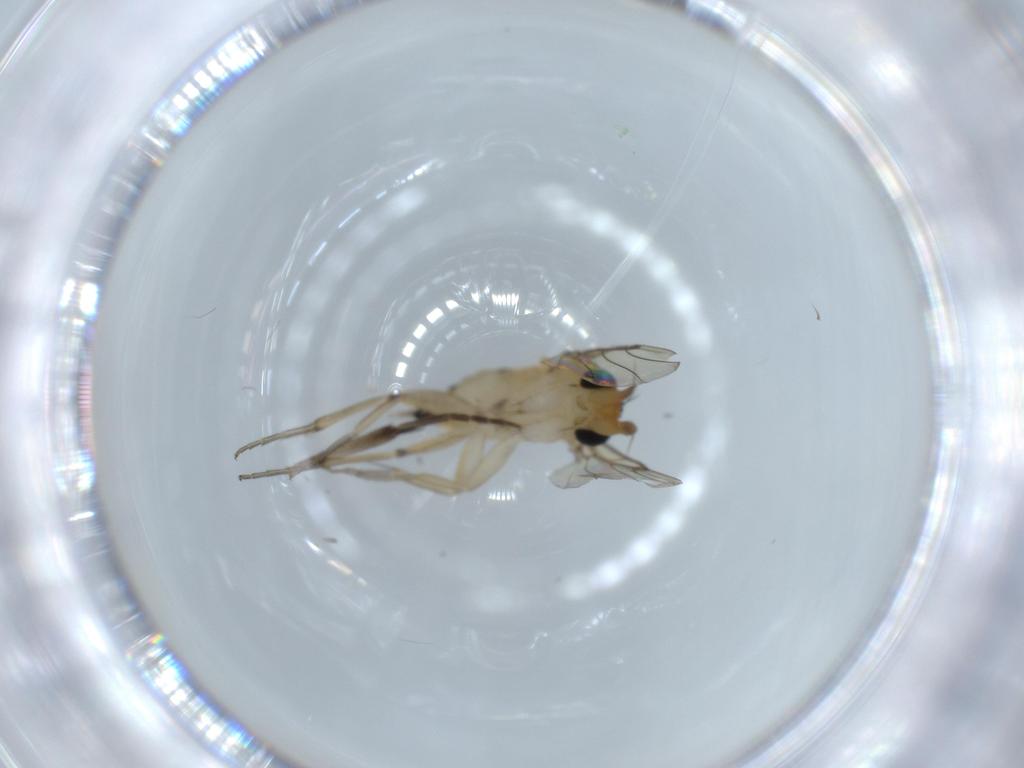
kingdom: Animalia
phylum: Arthropoda
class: Insecta
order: Diptera
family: Phoridae
